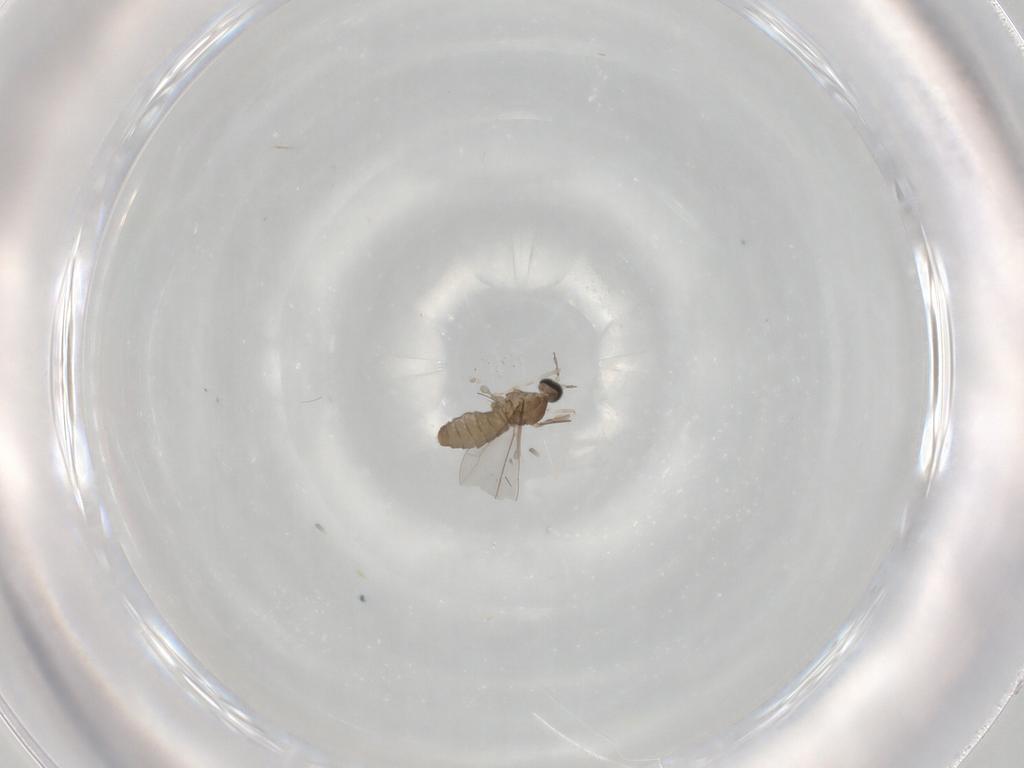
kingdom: Animalia
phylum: Arthropoda
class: Insecta
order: Diptera
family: Cecidomyiidae
